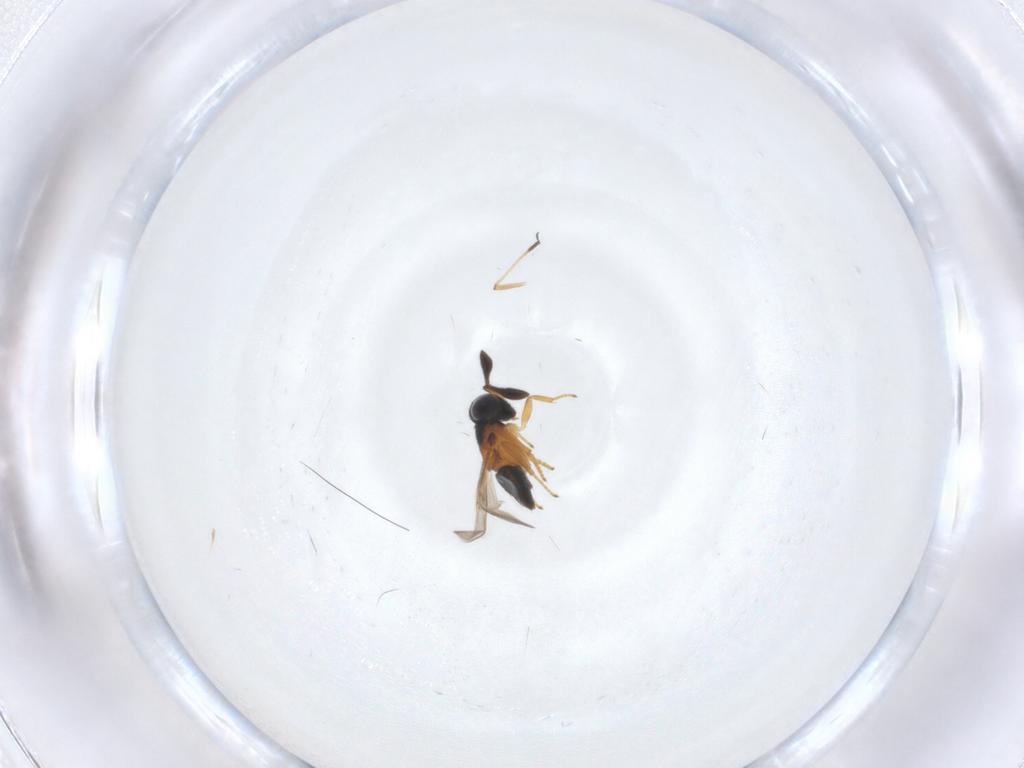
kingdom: Animalia
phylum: Arthropoda
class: Insecta
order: Hymenoptera
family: Encyrtidae
